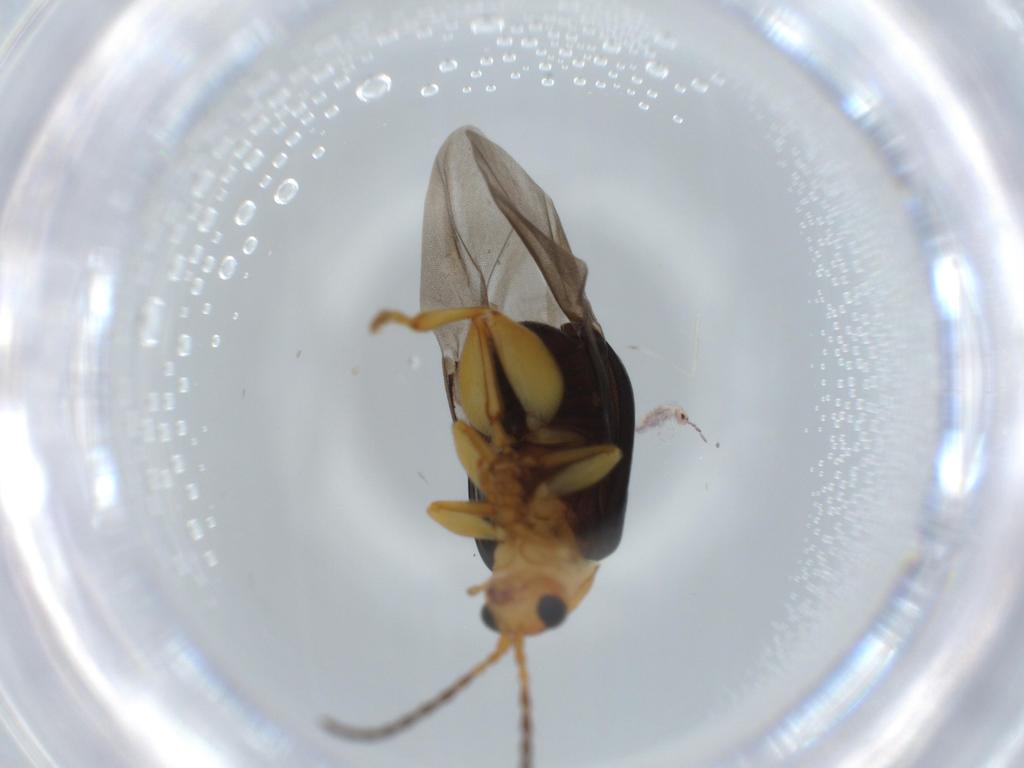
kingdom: Animalia
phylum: Arthropoda
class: Insecta
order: Coleoptera
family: Chrysomelidae
